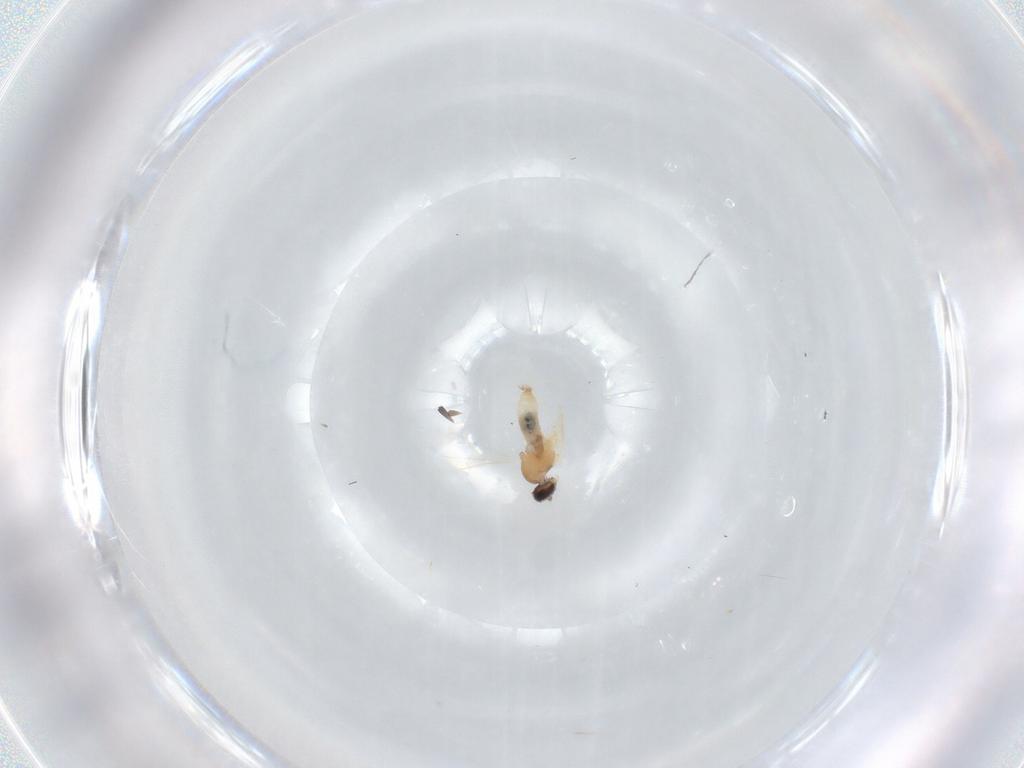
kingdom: Animalia
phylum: Arthropoda
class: Insecta
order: Diptera
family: Cecidomyiidae
